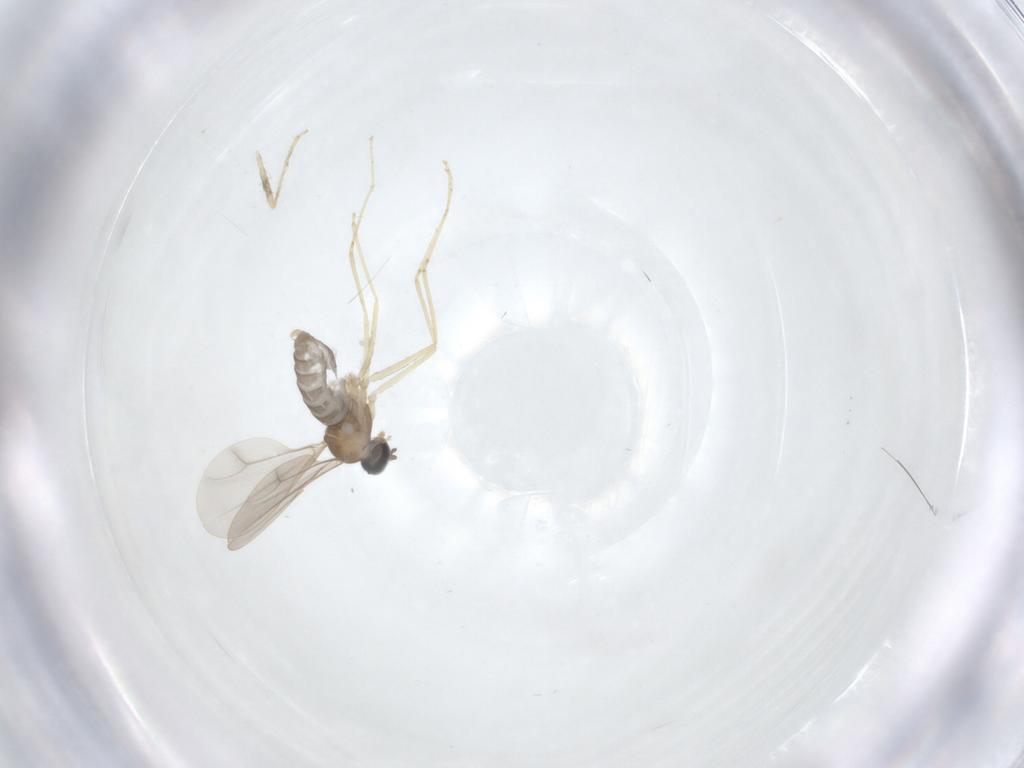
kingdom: Animalia
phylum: Arthropoda
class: Insecta
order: Diptera
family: Cecidomyiidae
